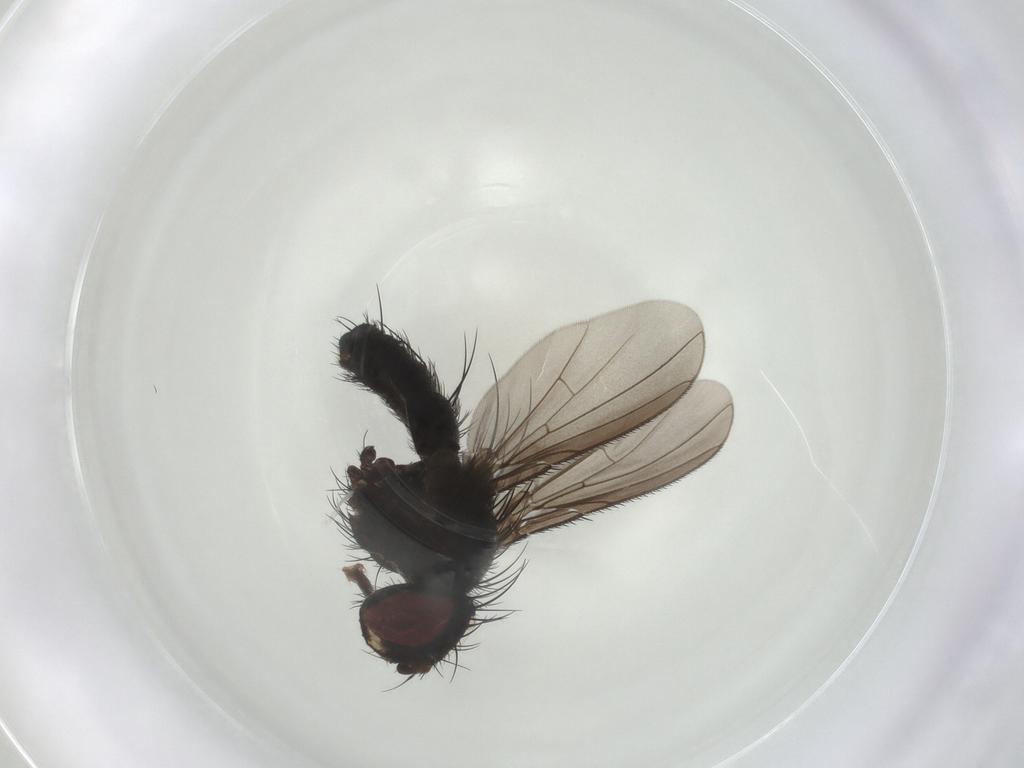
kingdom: Animalia
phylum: Arthropoda
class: Insecta
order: Diptera
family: Tachinidae
